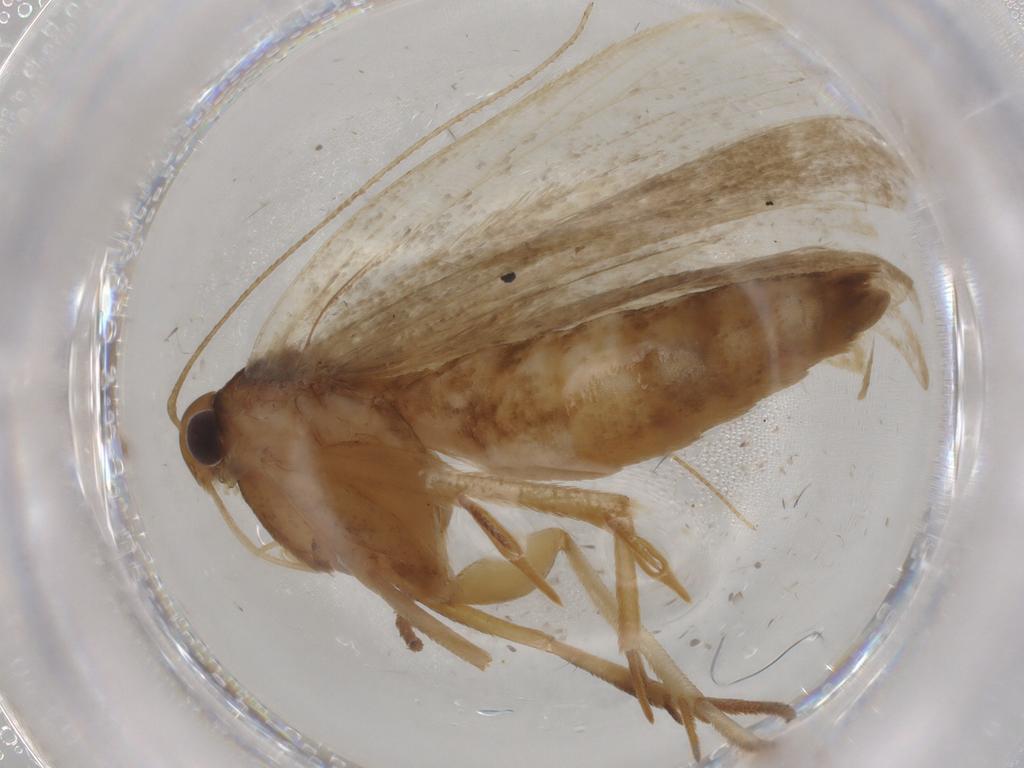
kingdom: Animalia
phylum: Arthropoda
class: Insecta
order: Lepidoptera
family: Gelechiidae
